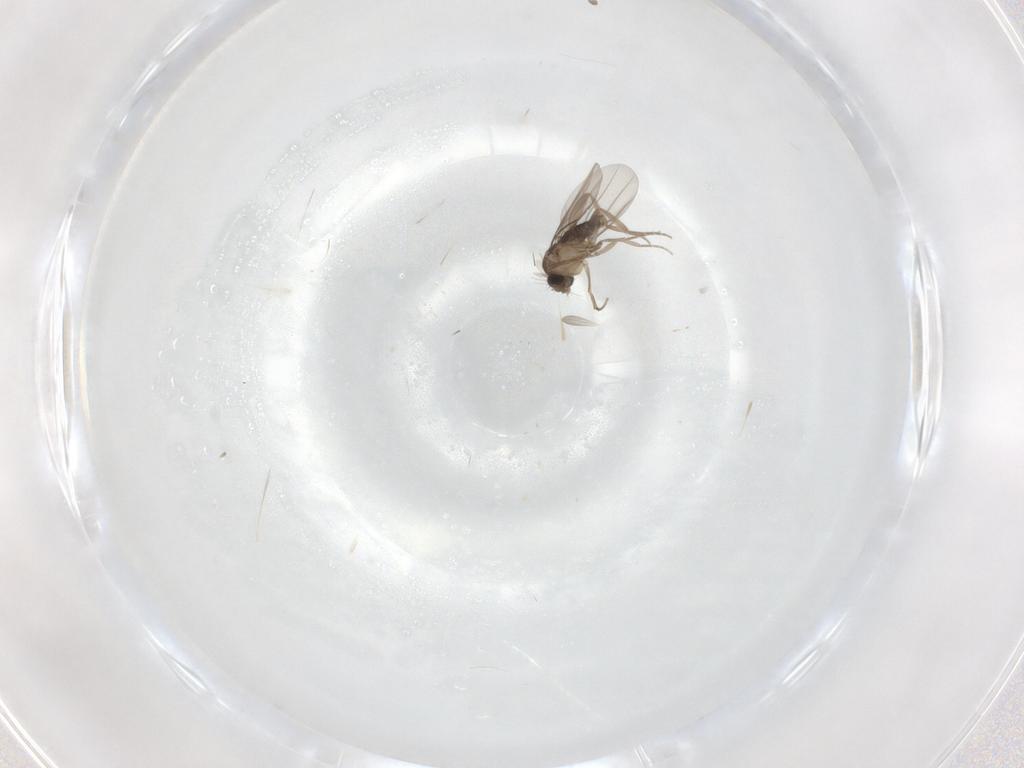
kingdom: Animalia
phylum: Arthropoda
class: Insecta
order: Diptera
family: Phoridae
